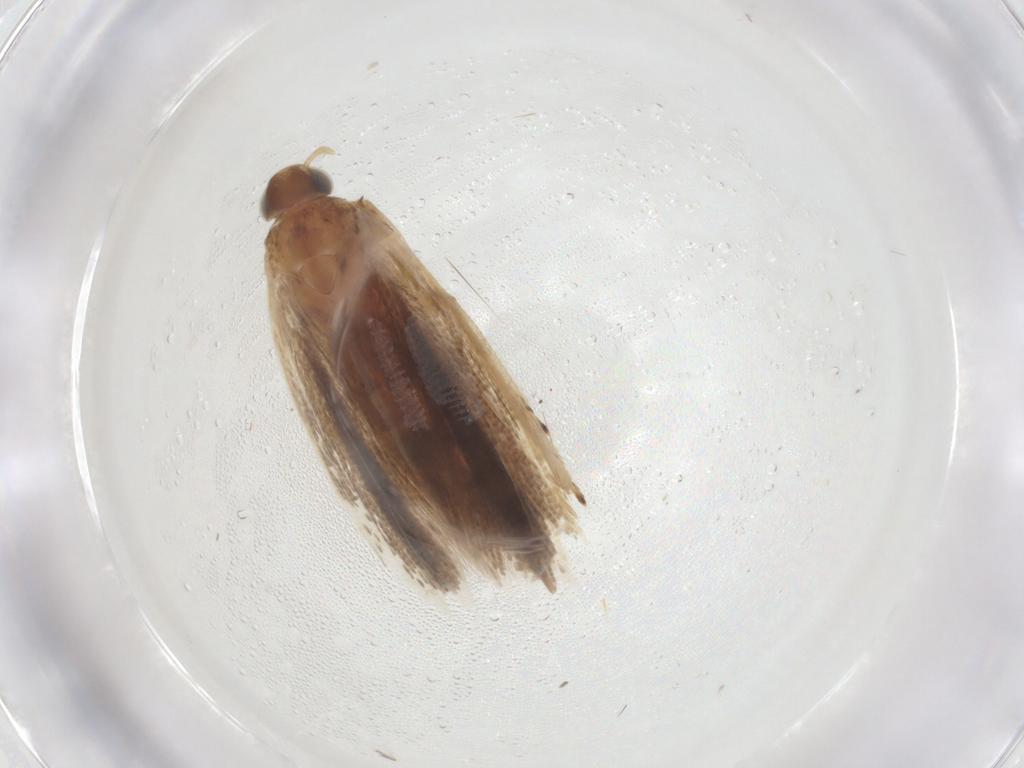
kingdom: Animalia
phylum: Arthropoda
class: Insecta
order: Lepidoptera
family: Gelechiidae
